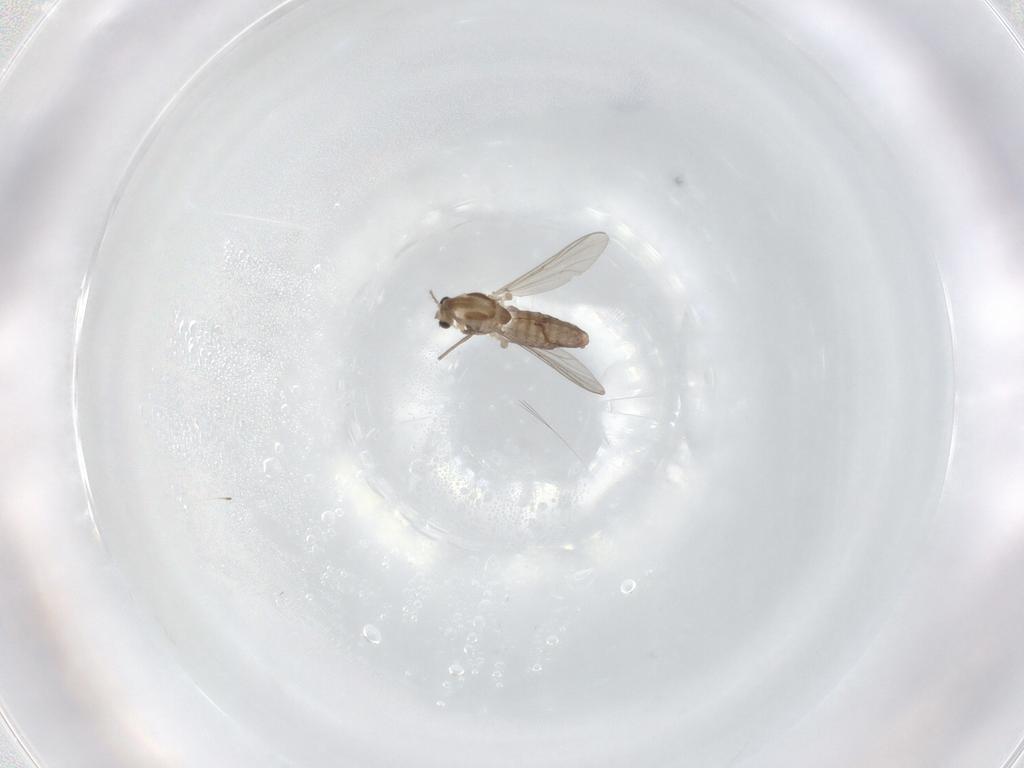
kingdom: Animalia
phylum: Arthropoda
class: Insecta
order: Diptera
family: Chironomidae
